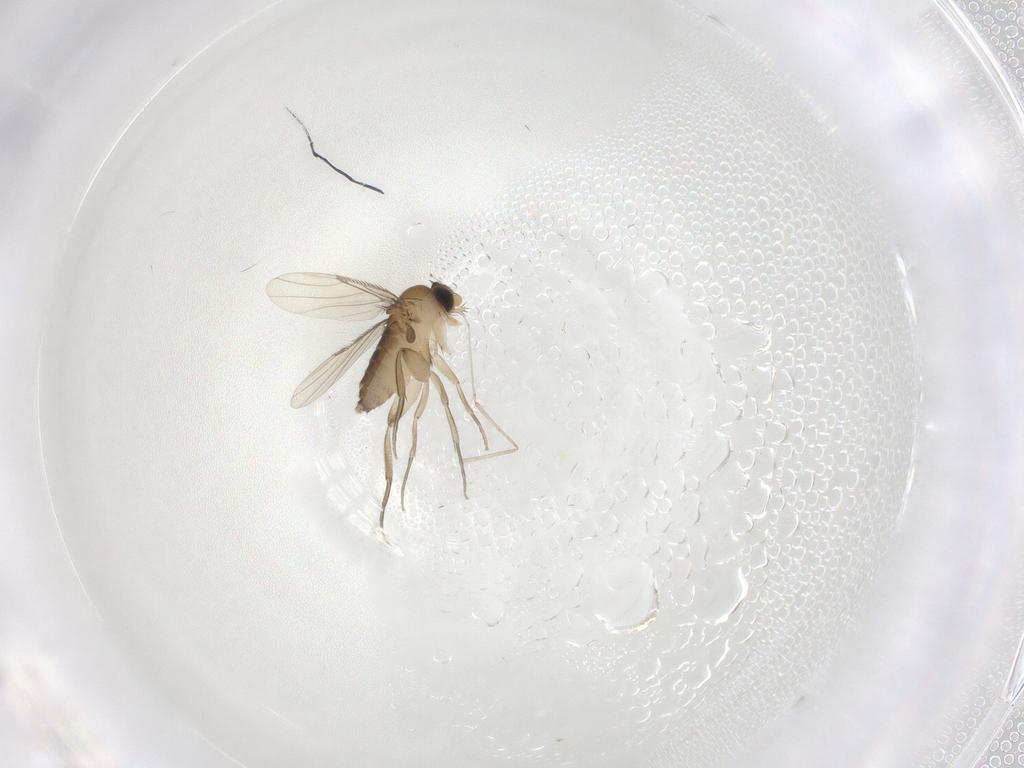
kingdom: Animalia
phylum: Arthropoda
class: Insecta
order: Diptera
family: Phoridae
